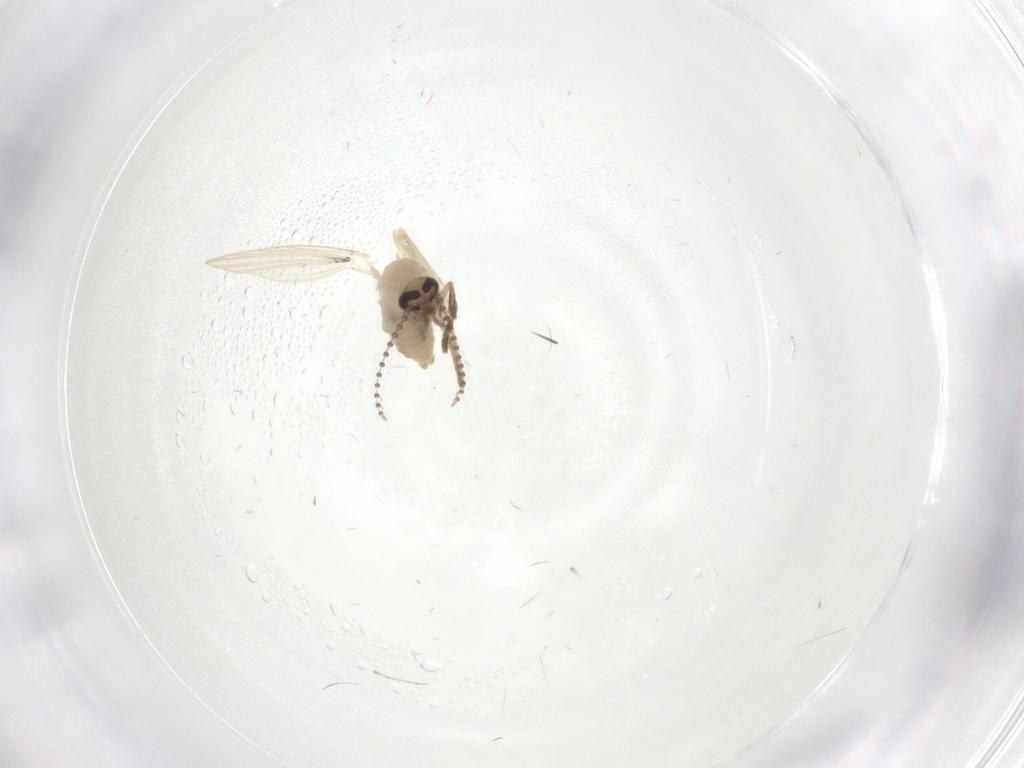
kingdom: Animalia
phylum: Arthropoda
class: Insecta
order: Diptera
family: Psychodidae
